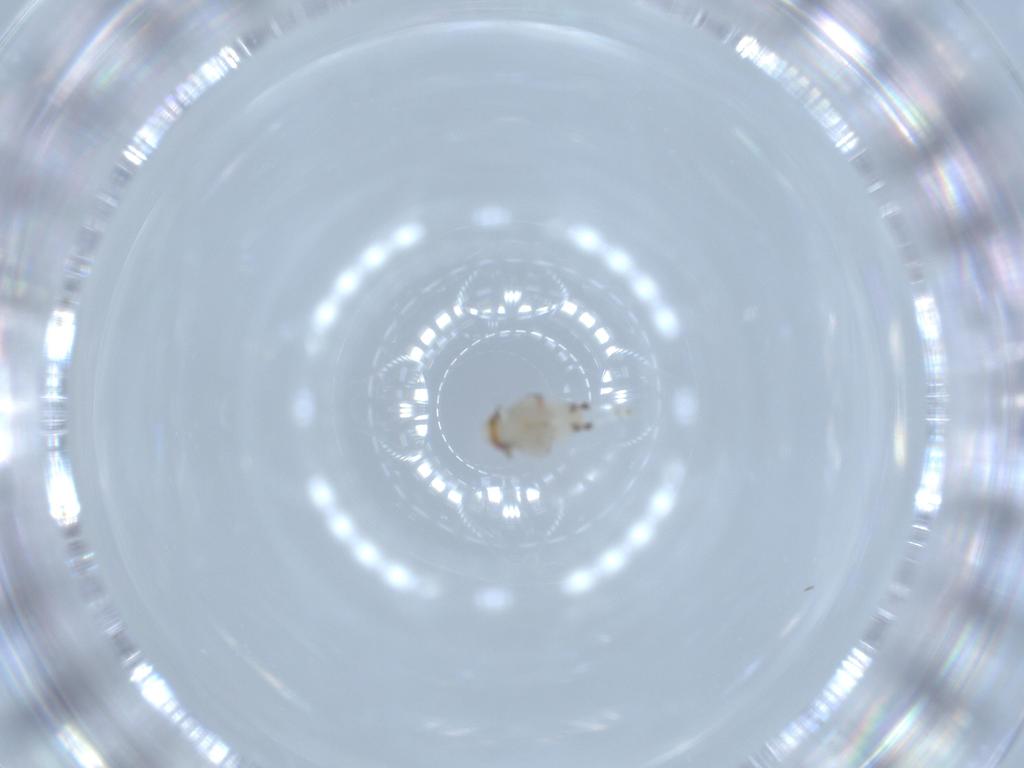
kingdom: Animalia
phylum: Arthropoda
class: Insecta
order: Hemiptera
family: Nogodinidae
